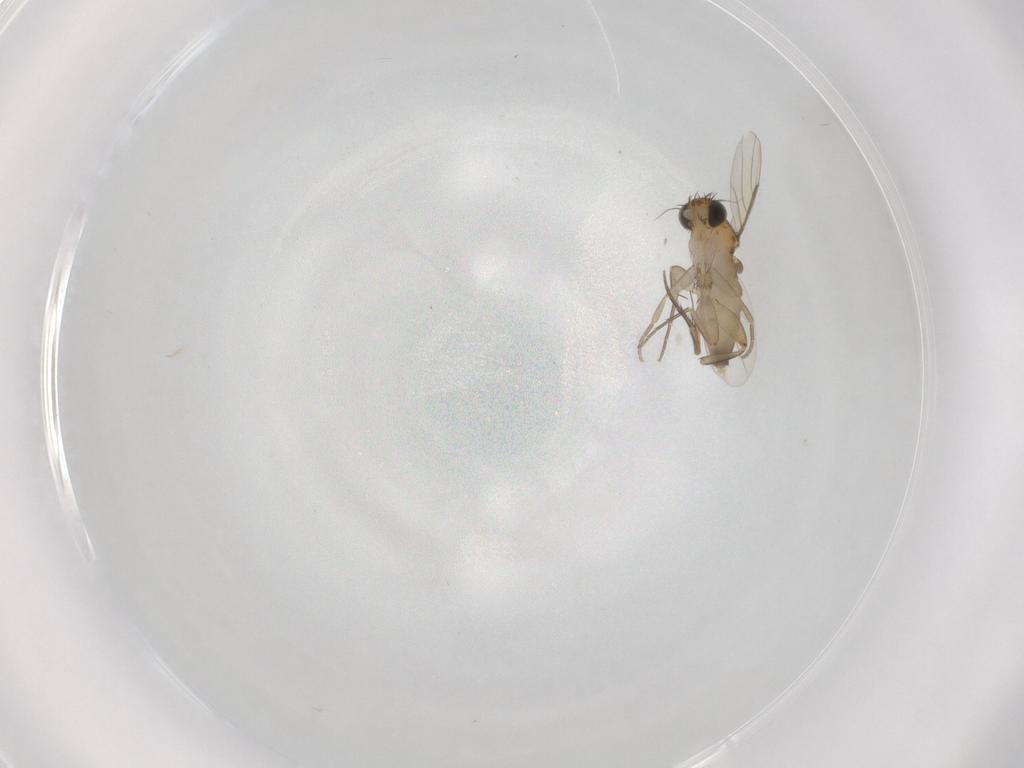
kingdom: Animalia
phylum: Arthropoda
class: Insecta
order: Diptera
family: Phoridae
